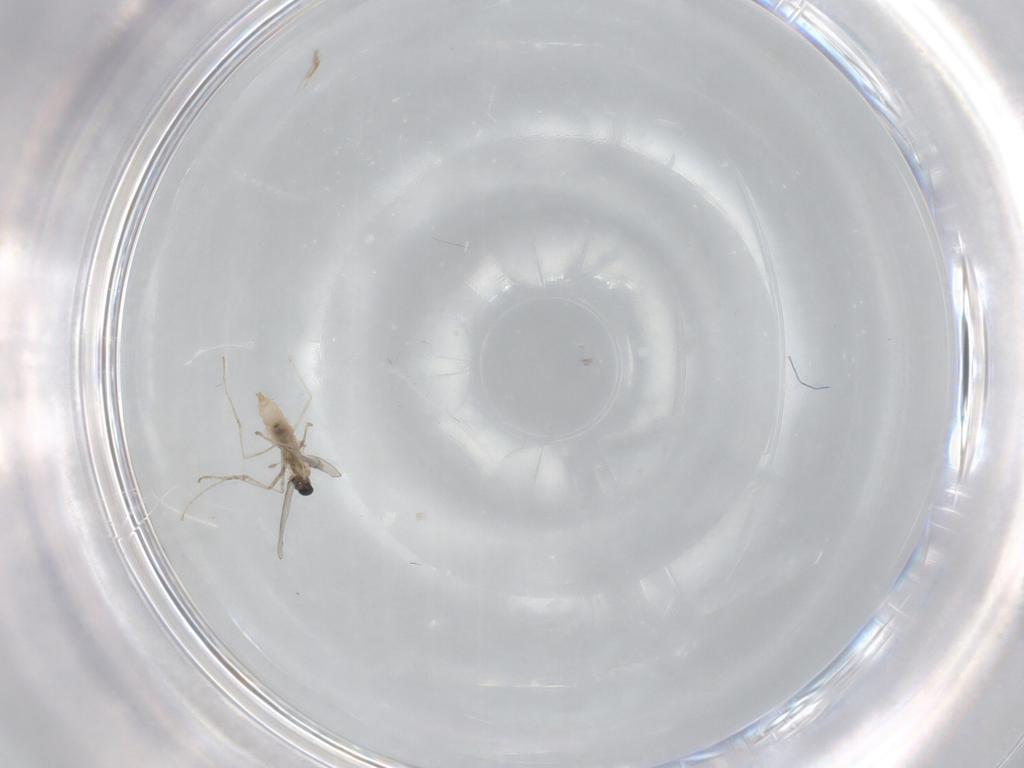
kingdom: Animalia
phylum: Arthropoda
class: Insecta
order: Diptera
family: Cecidomyiidae
